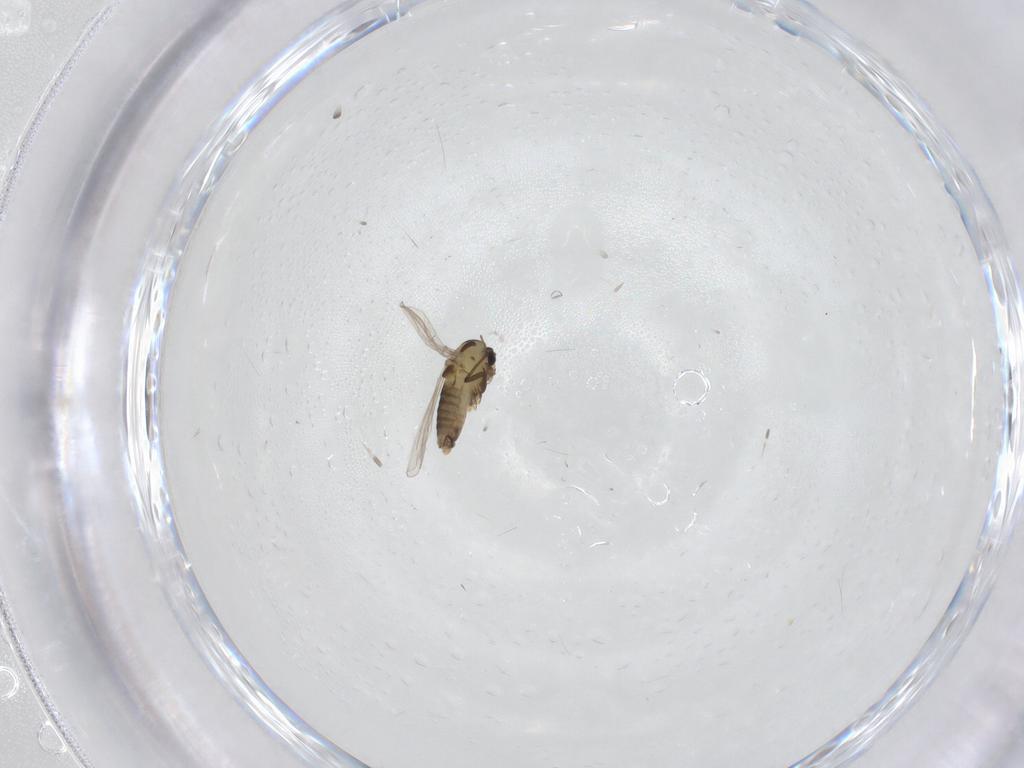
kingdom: Animalia
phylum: Arthropoda
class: Insecta
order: Diptera
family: Chironomidae
